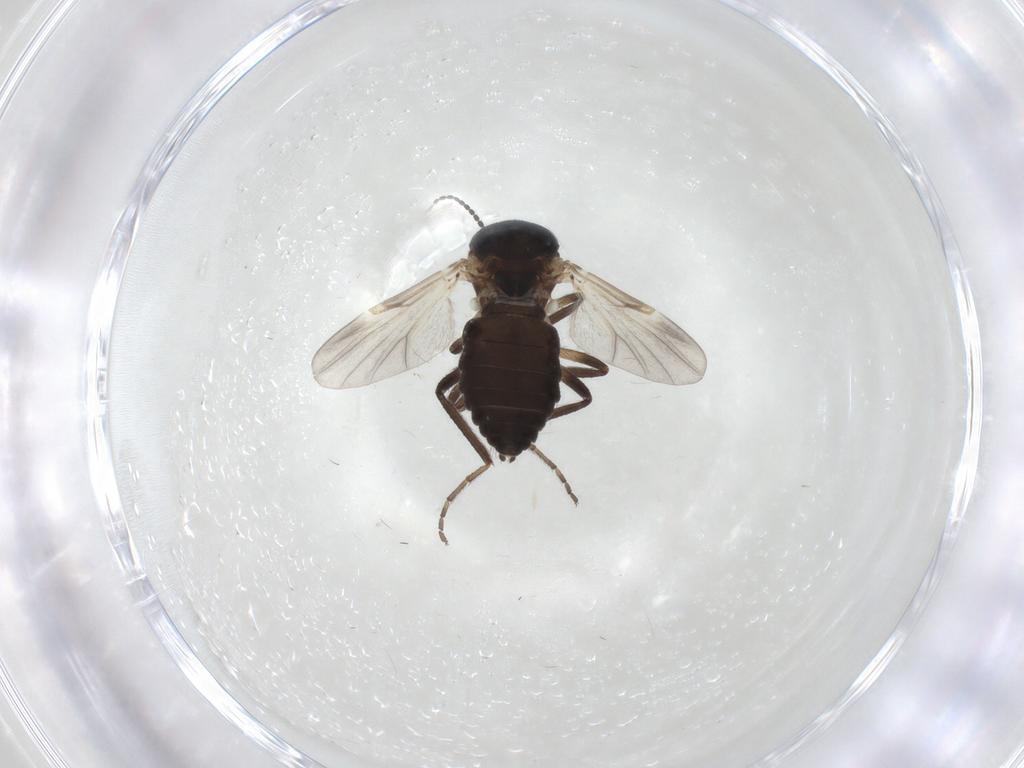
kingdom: Animalia
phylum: Arthropoda
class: Insecta
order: Diptera
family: Ceratopogonidae
